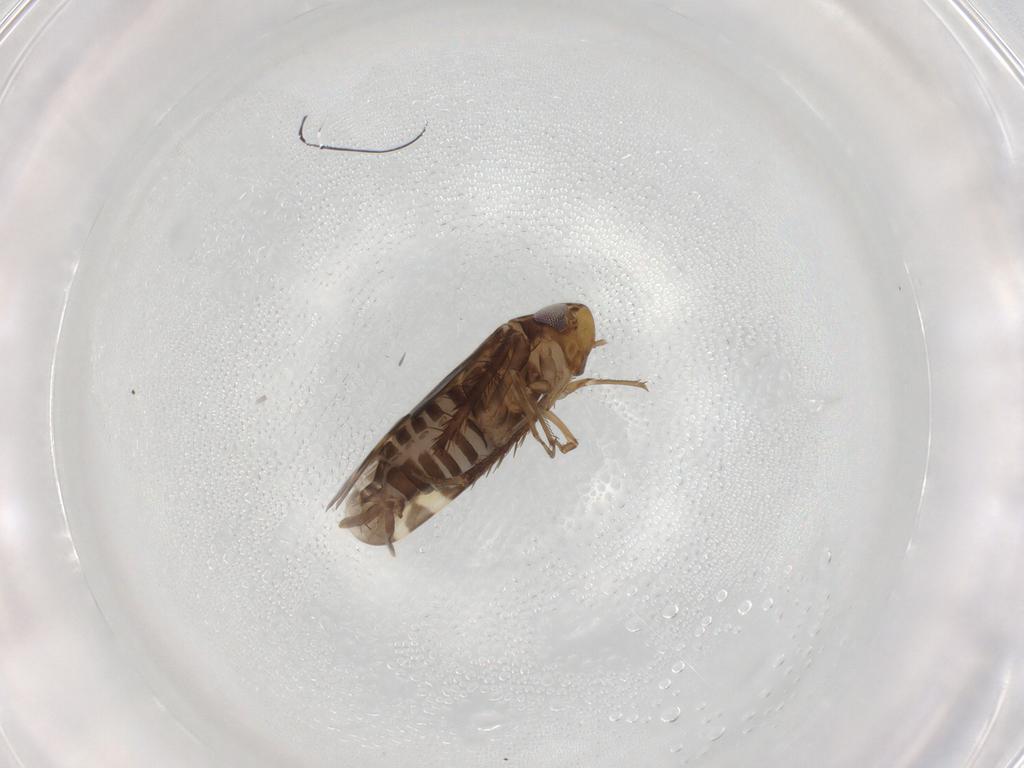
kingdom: Animalia
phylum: Arthropoda
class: Insecta
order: Hemiptera
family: Cicadellidae
